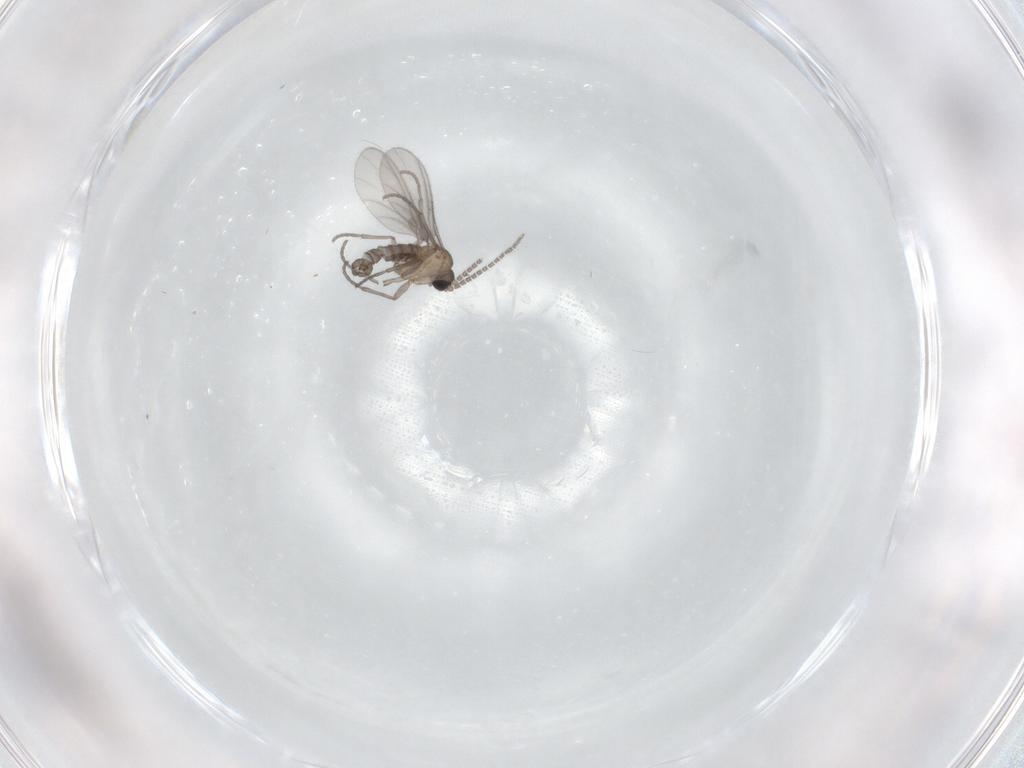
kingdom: Animalia
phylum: Arthropoda
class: Insecta
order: Diptera
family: Sciaridae
